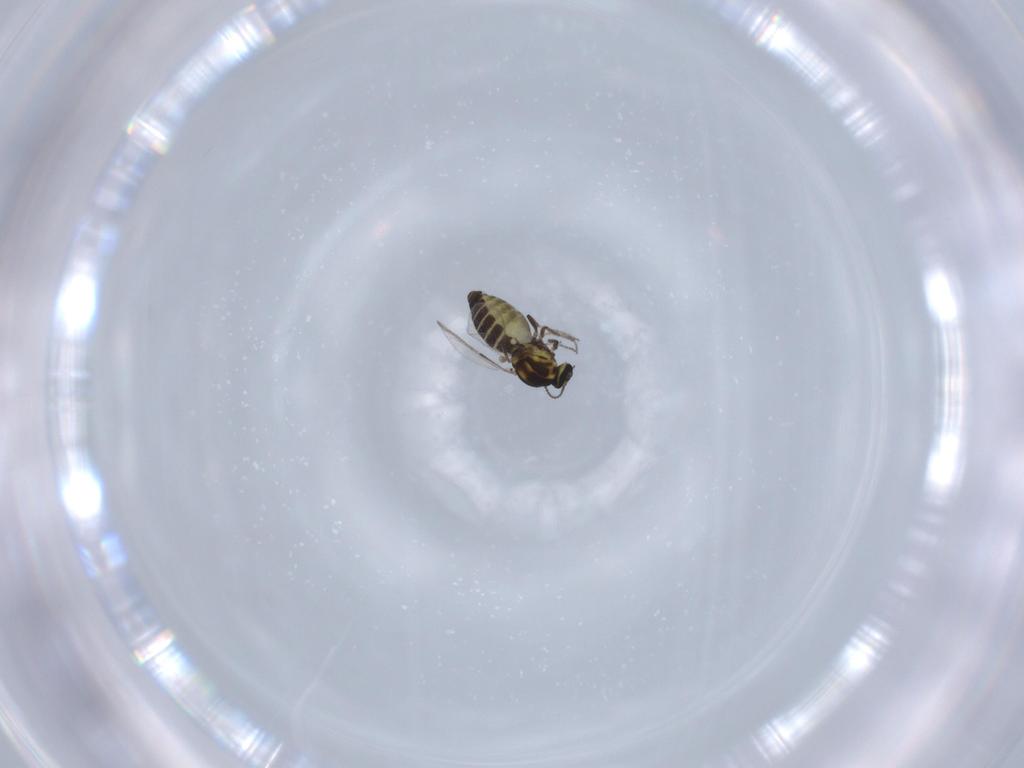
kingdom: Animalia
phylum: Arthropoda
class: Insecta
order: Diptera
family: Ceratopogonidae
